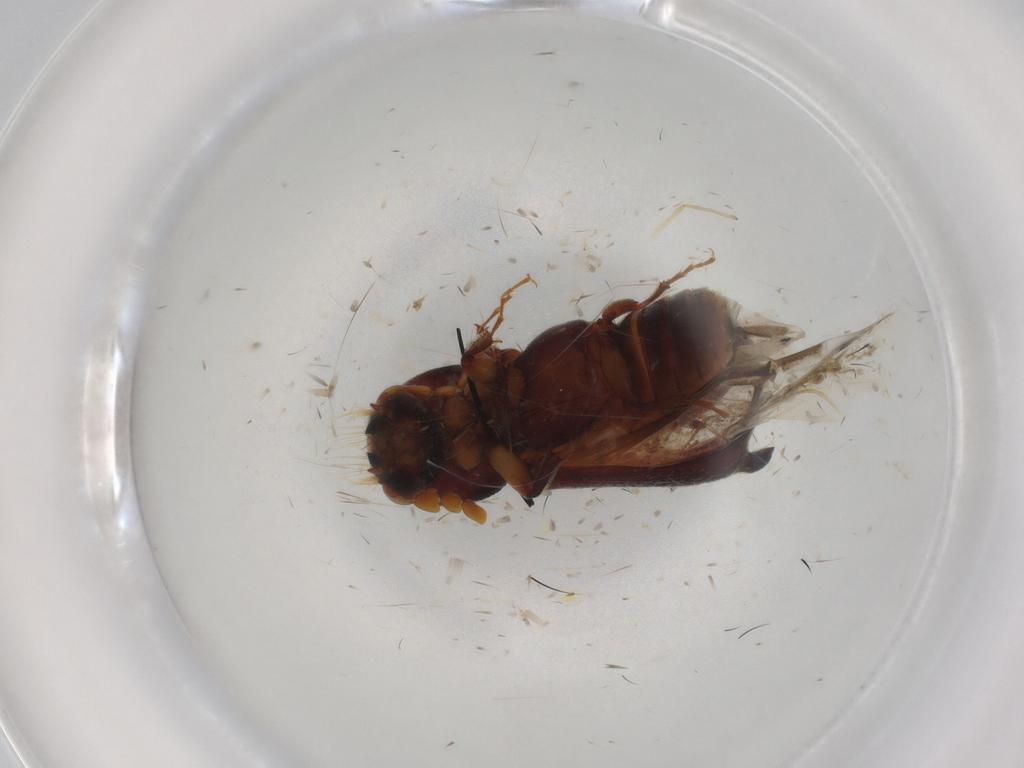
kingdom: Animalia
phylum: Arthropoda
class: Insecta
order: Coleoptera
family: Bostrichidae
